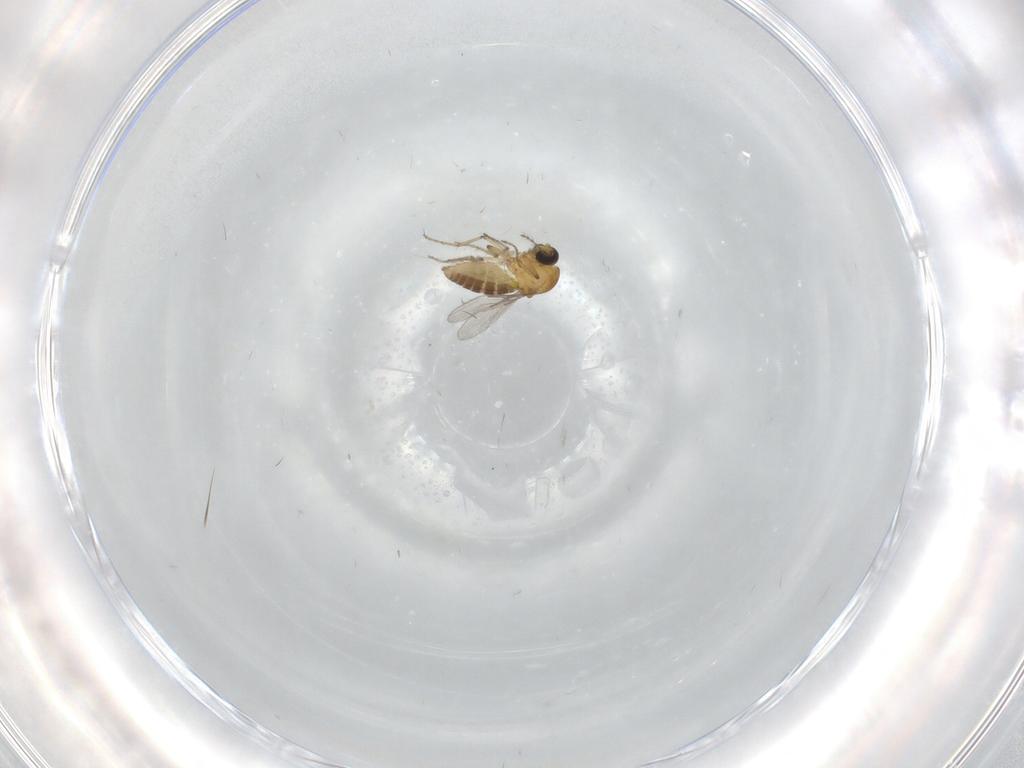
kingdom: Animalia
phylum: Arthropoda
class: Insecta
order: Diptera
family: Ceratopogonidae
